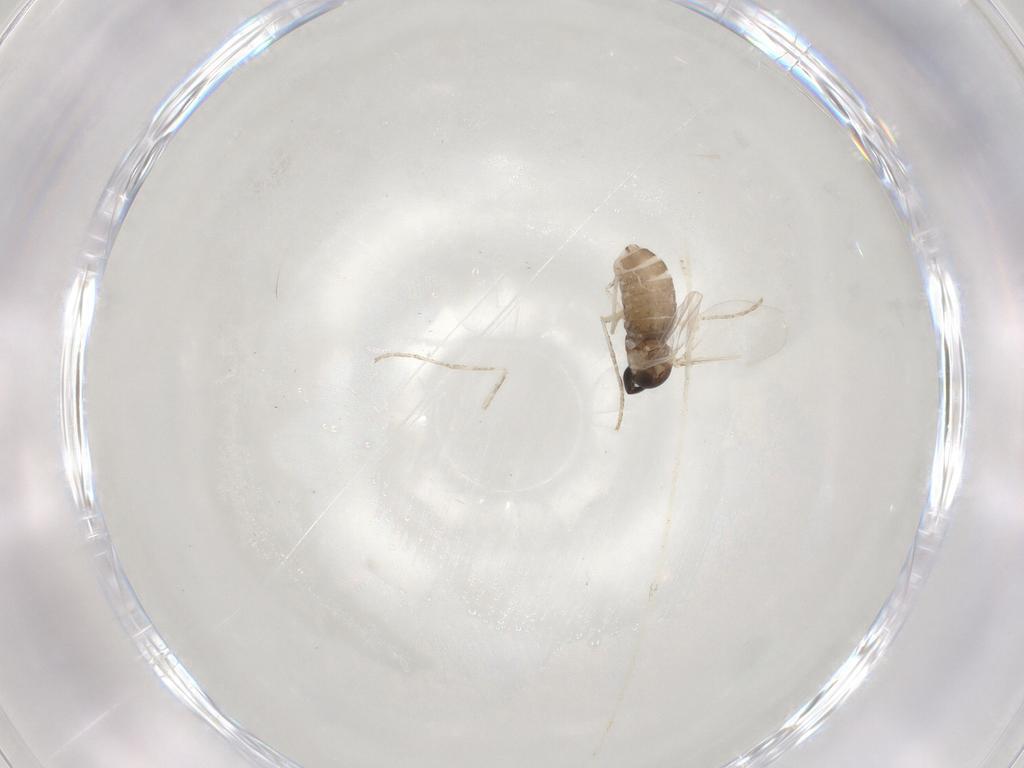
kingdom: Animalia
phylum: Arthropoda
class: Insecta
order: Diptera
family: Cecidomyiidae
